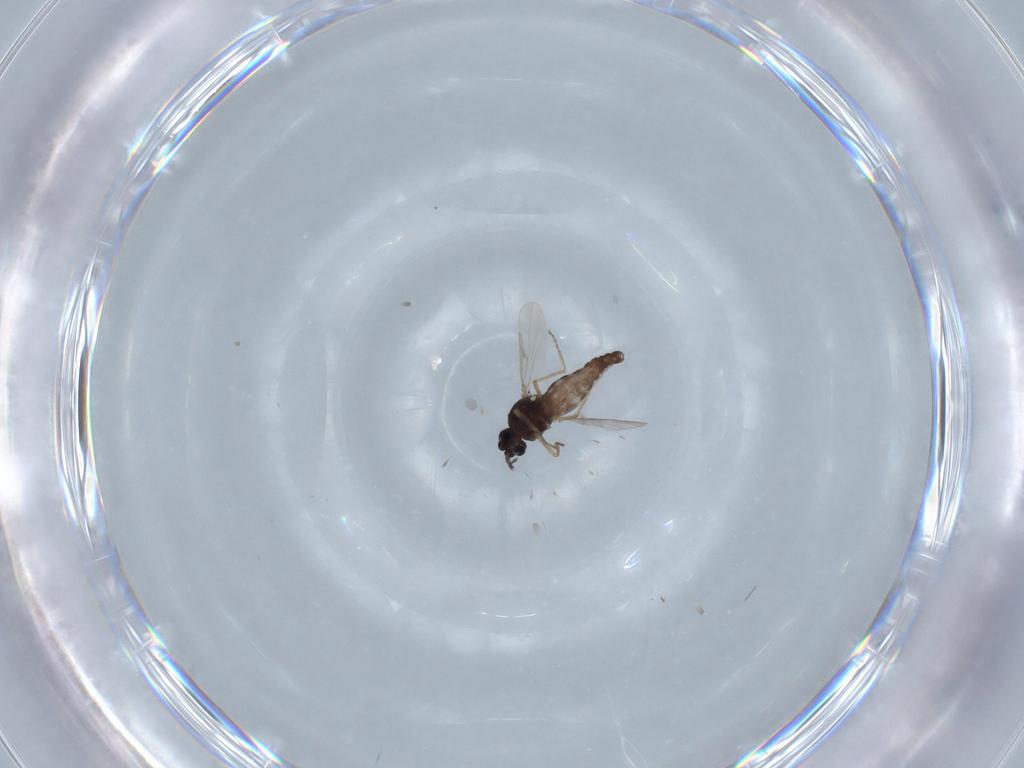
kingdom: Animalia
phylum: Arthropoda
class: Insecta
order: Diptera
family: Ceratopogonidae
